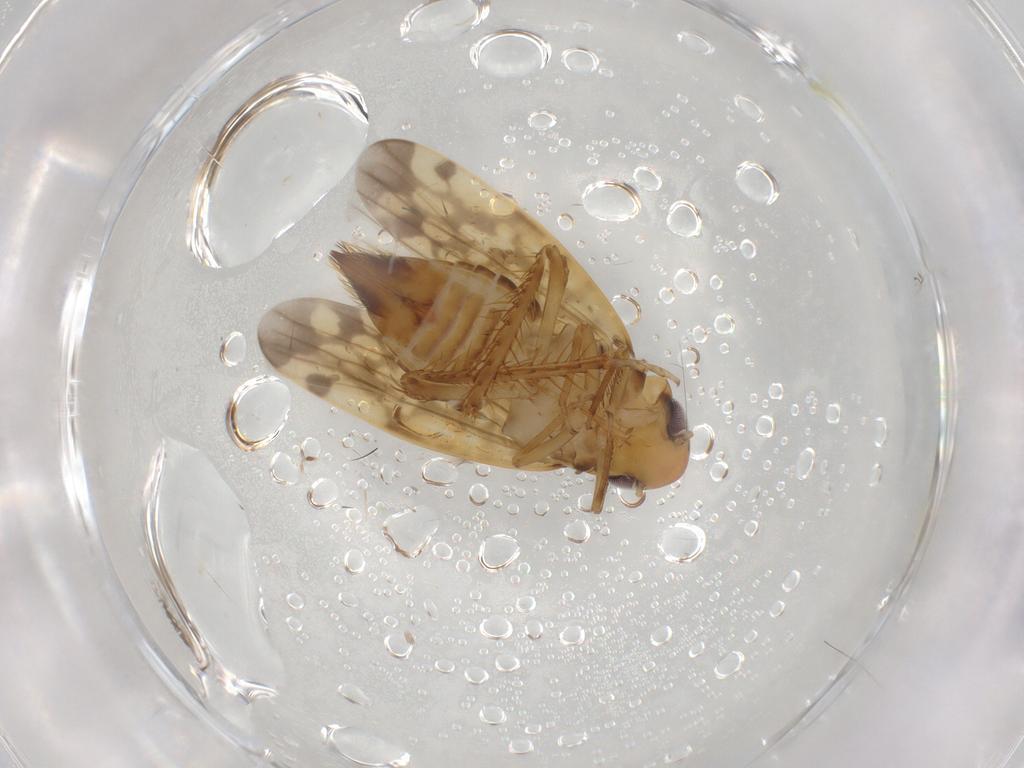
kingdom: Animalia
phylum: Arthropoda
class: Insecta
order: Hemiptera
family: Cicadellidae
